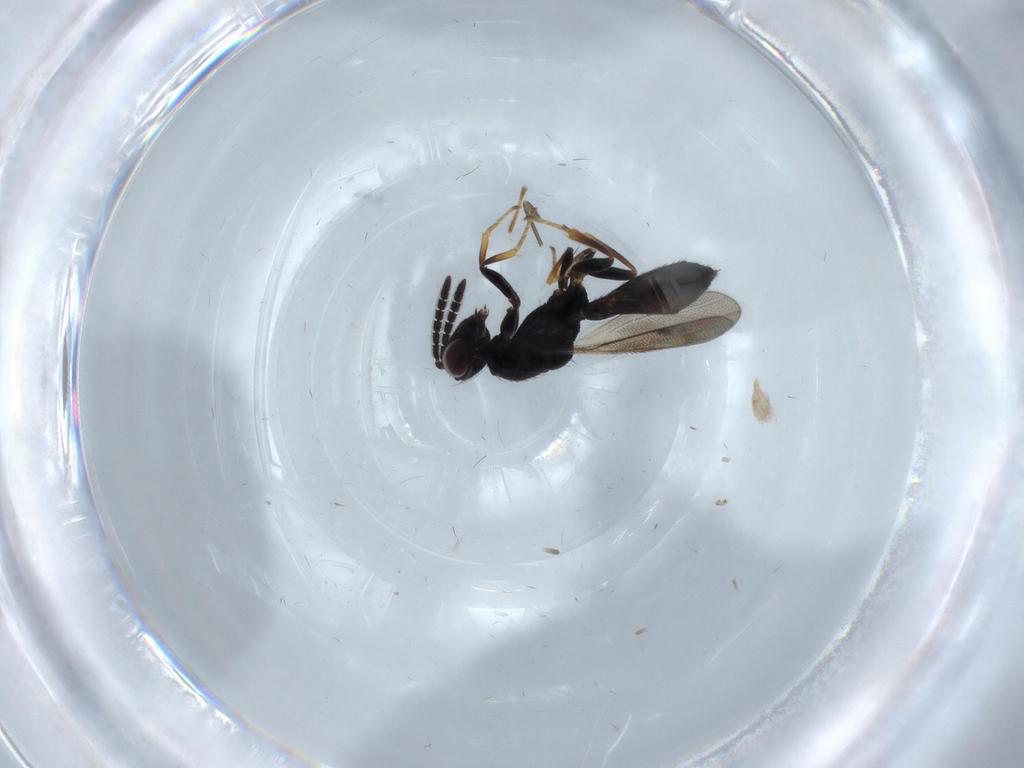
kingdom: Animalia
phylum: Arthropoda
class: Insecta
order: Hymenoptera
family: Pteromalidae
